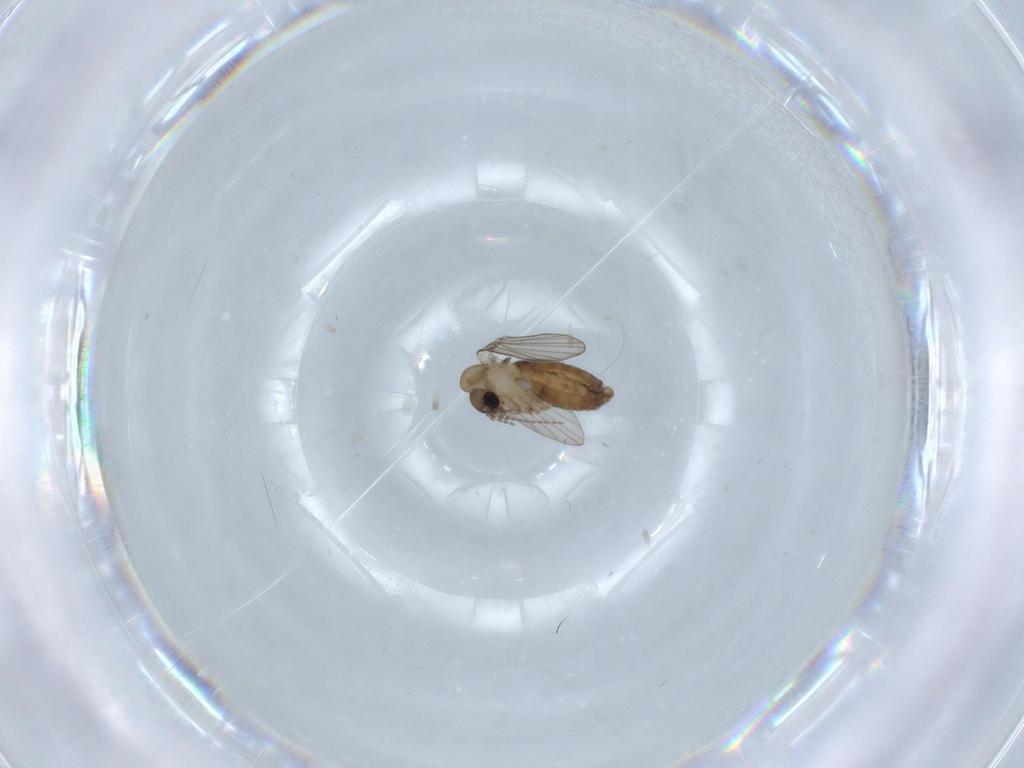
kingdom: Animalia
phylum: Arthropoda
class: Insecta
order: Diptera
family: Psychodidae
